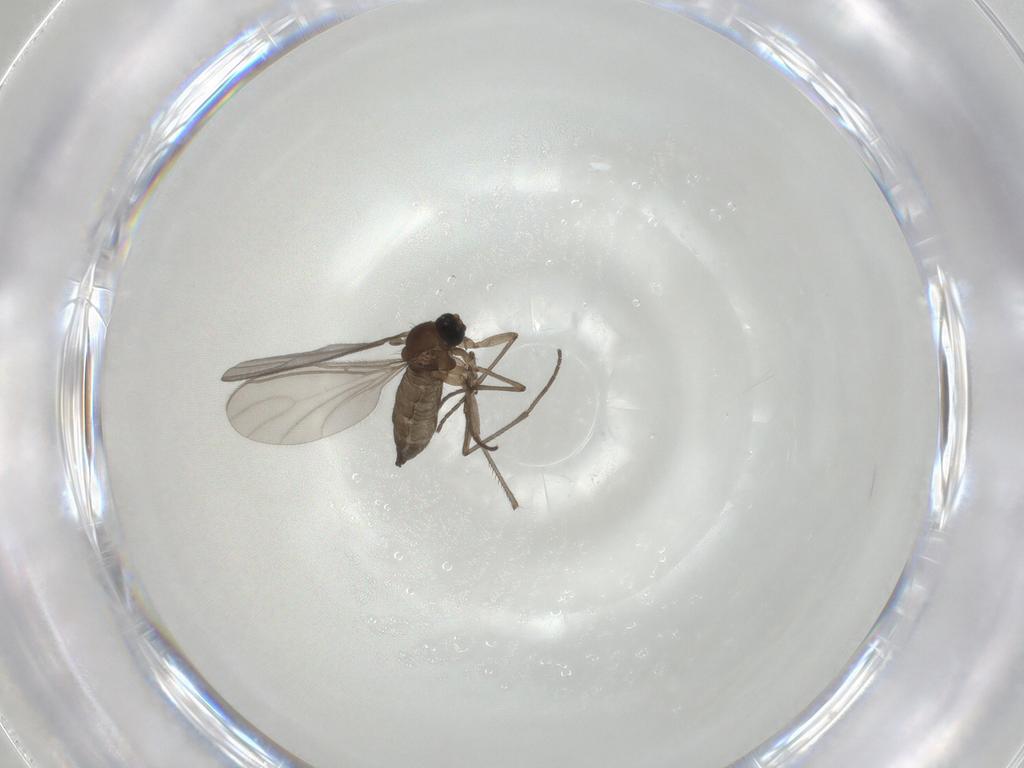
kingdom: Animalia
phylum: Arthropoda
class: Insecta
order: Diptera
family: Sciaridae
